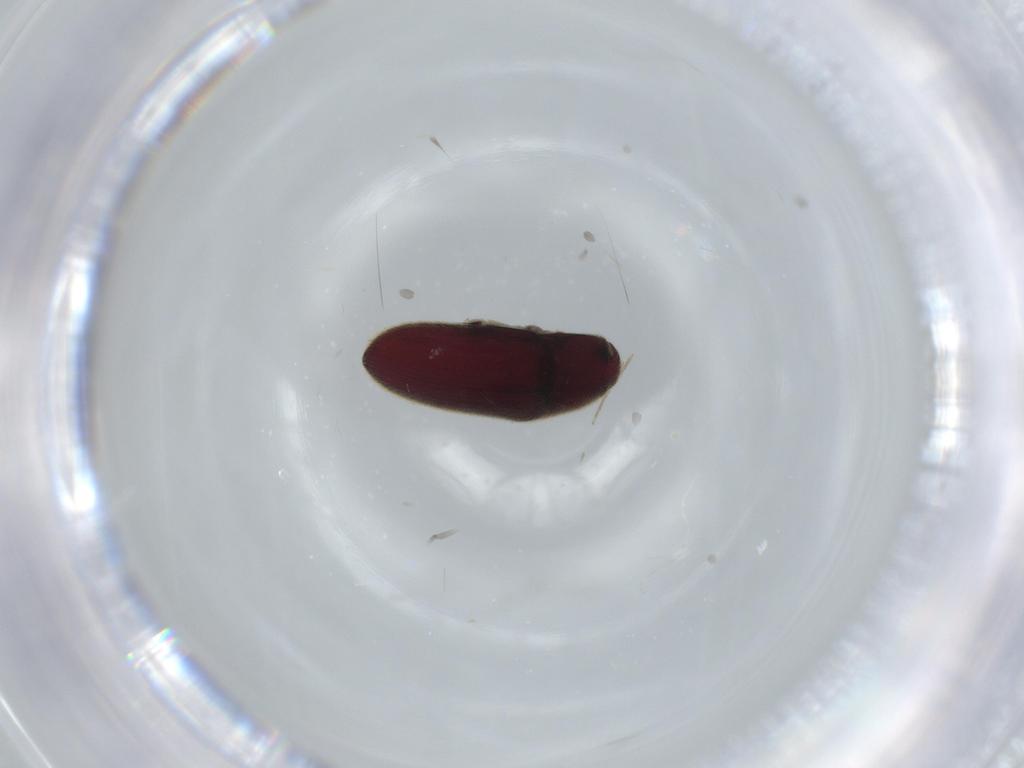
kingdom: Animalia
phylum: Arthropoda
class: Insecta
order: Coleoptera
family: Throscidae
